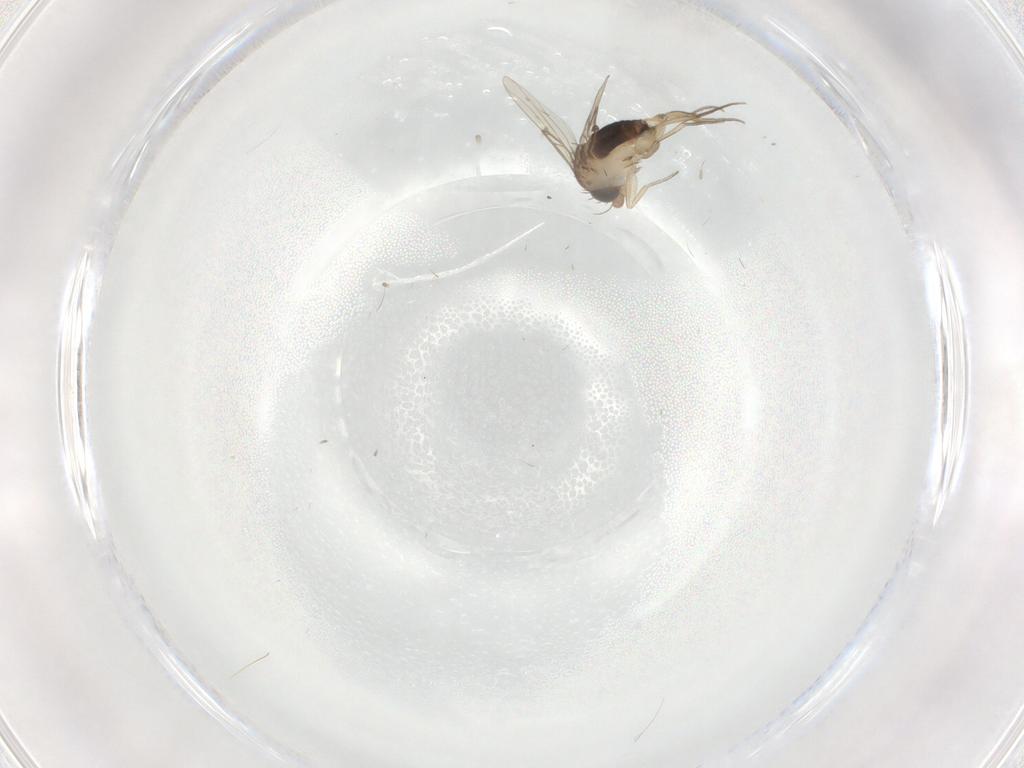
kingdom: Animalia
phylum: Arthropoda
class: Insecta
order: Diptera
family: Phoridae
